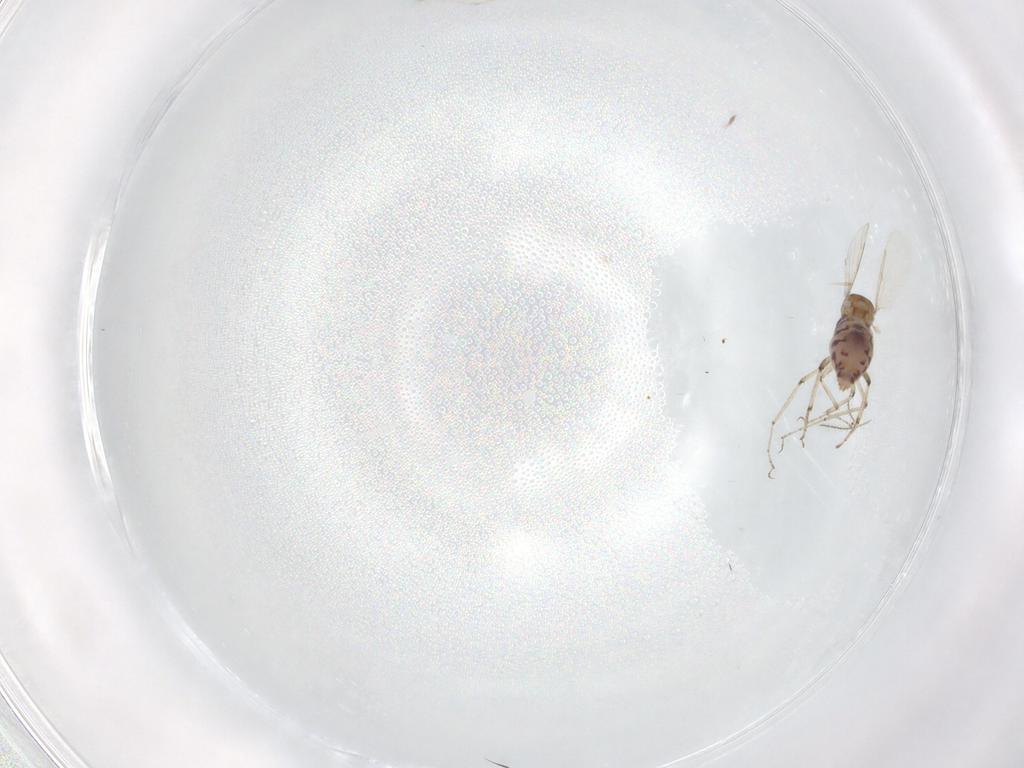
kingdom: Animalia
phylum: Arthropoda
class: Insecta
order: Diptera
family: Ceratopogonidae
